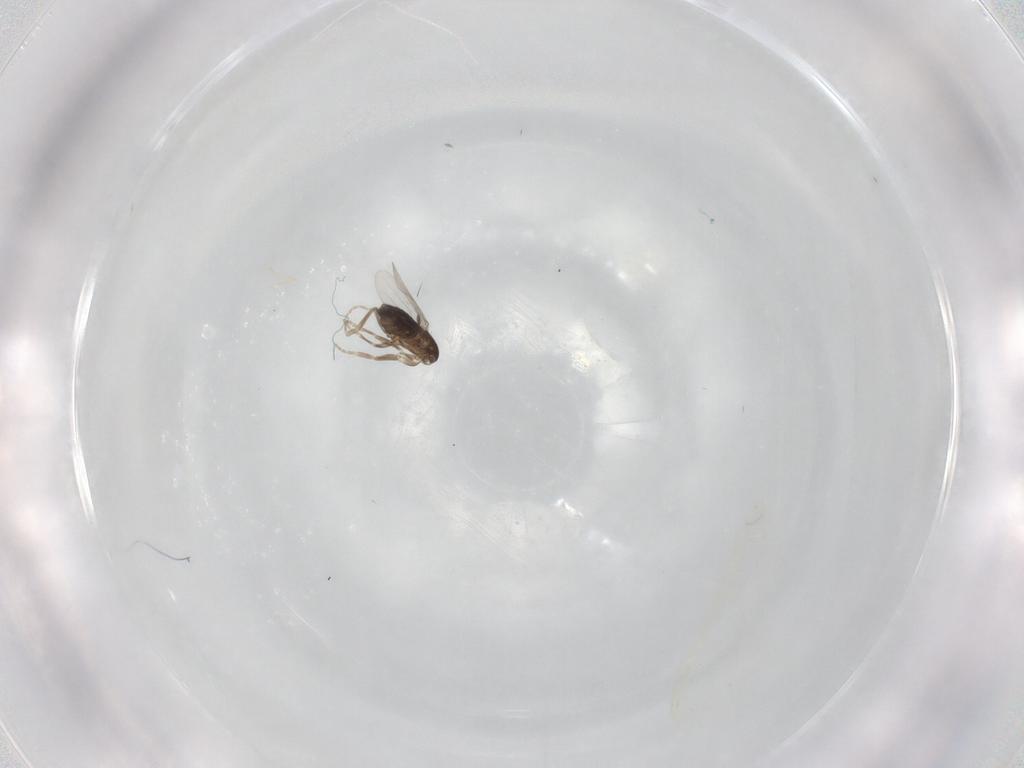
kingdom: Animalia
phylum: Arthropoda
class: Insecta
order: Diptera
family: Phoridae
